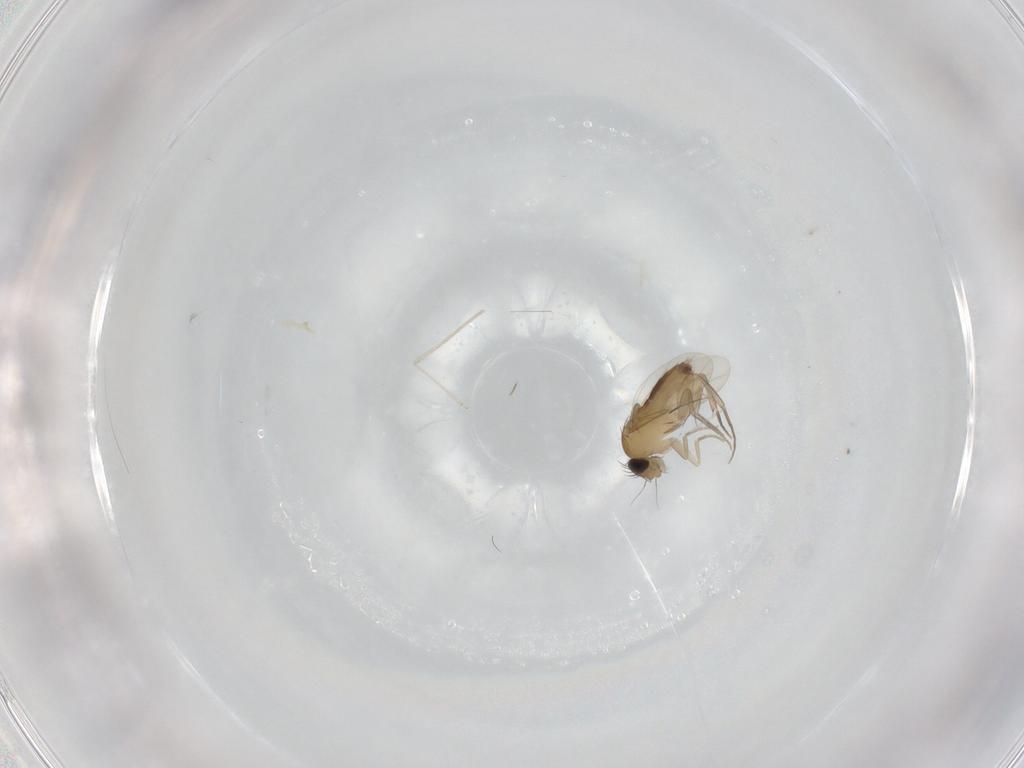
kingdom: Animalia
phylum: Arthropoda
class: Insecta
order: Diptera
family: Phoridae
